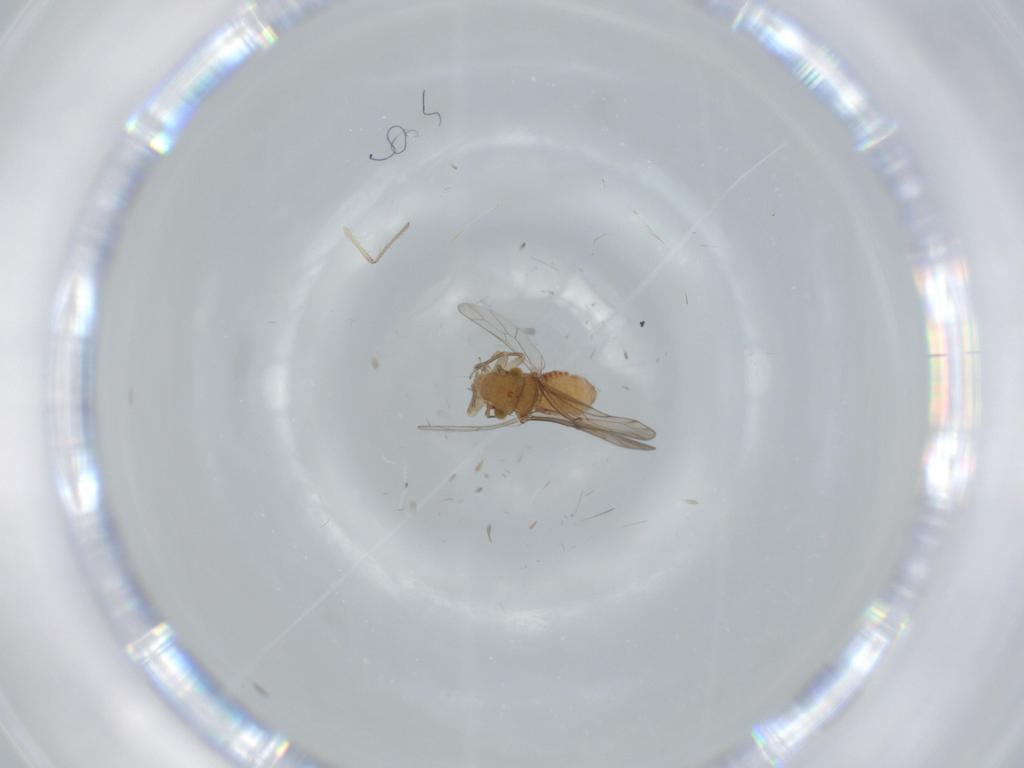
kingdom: Animalia
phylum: Arthropoda
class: Insecta
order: Psocodea
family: Ectopsocidae
